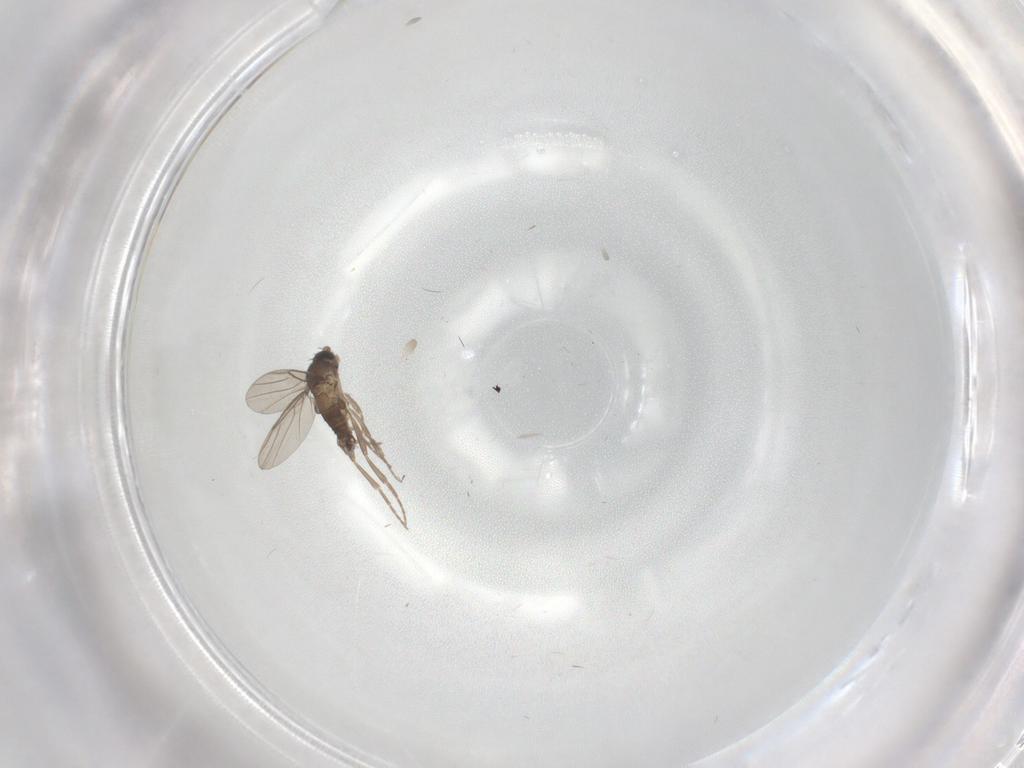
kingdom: Animalia
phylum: Arthropoda
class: Insecta
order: Diptera
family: Phoridae
